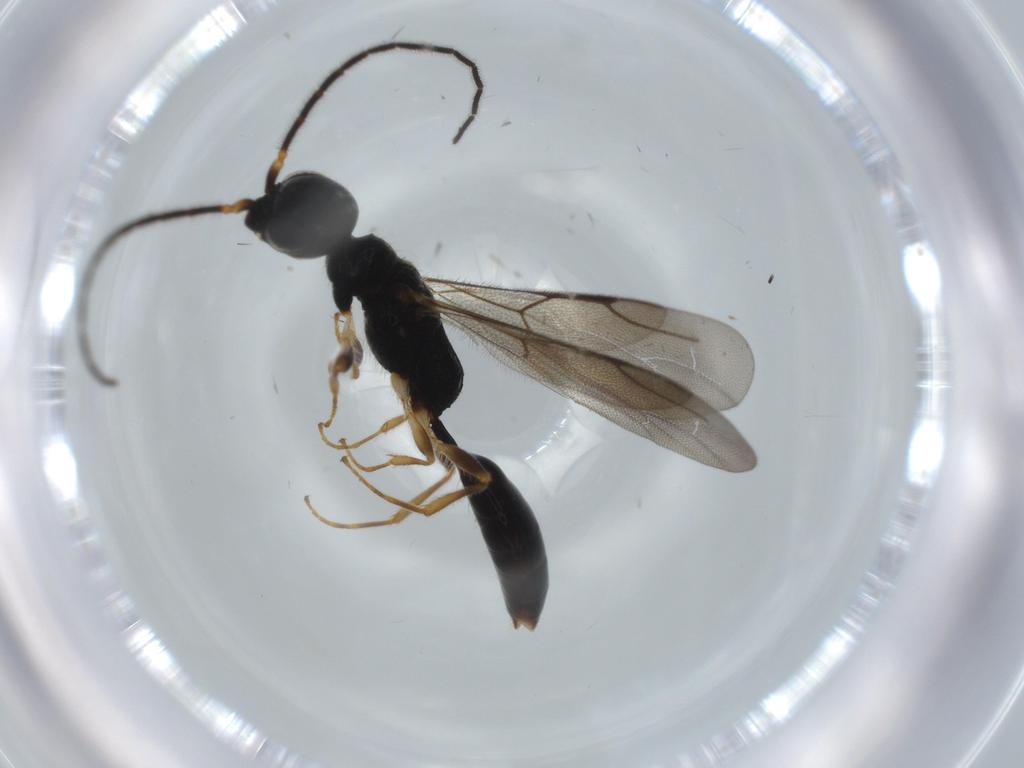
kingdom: Animalia
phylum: Arthropoda
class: Insecta
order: Hymenoptera
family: Bethylidae
